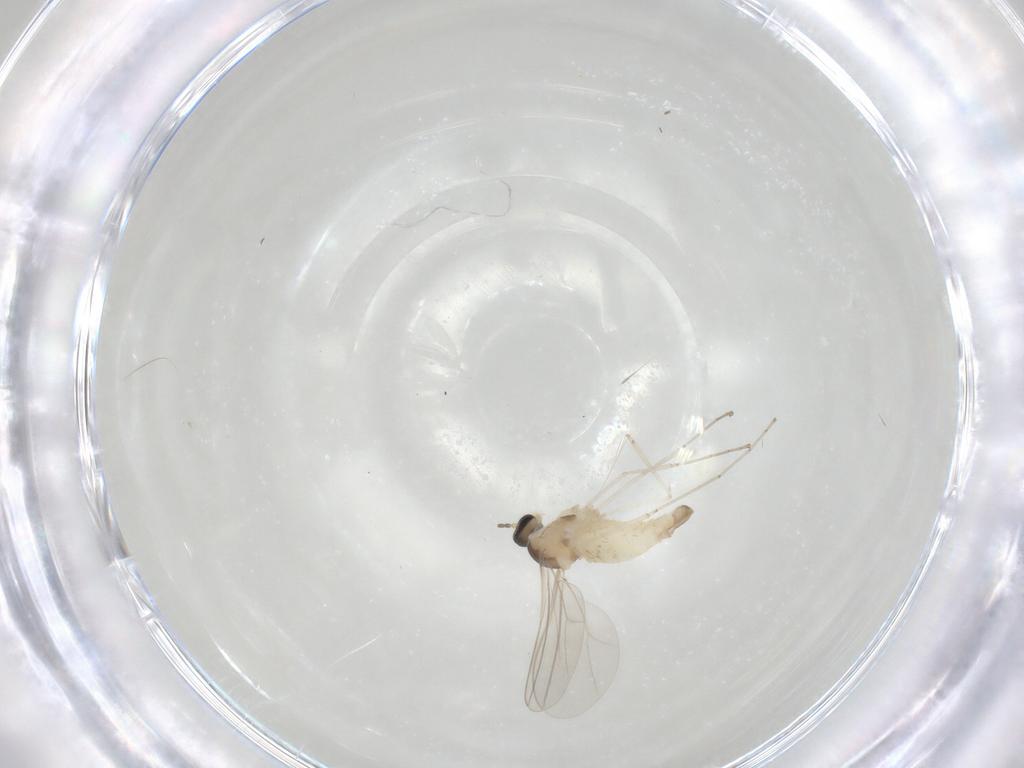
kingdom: Animalia
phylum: Arthropoda
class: Insecta
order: Diptera
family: Cecidomyiidae
